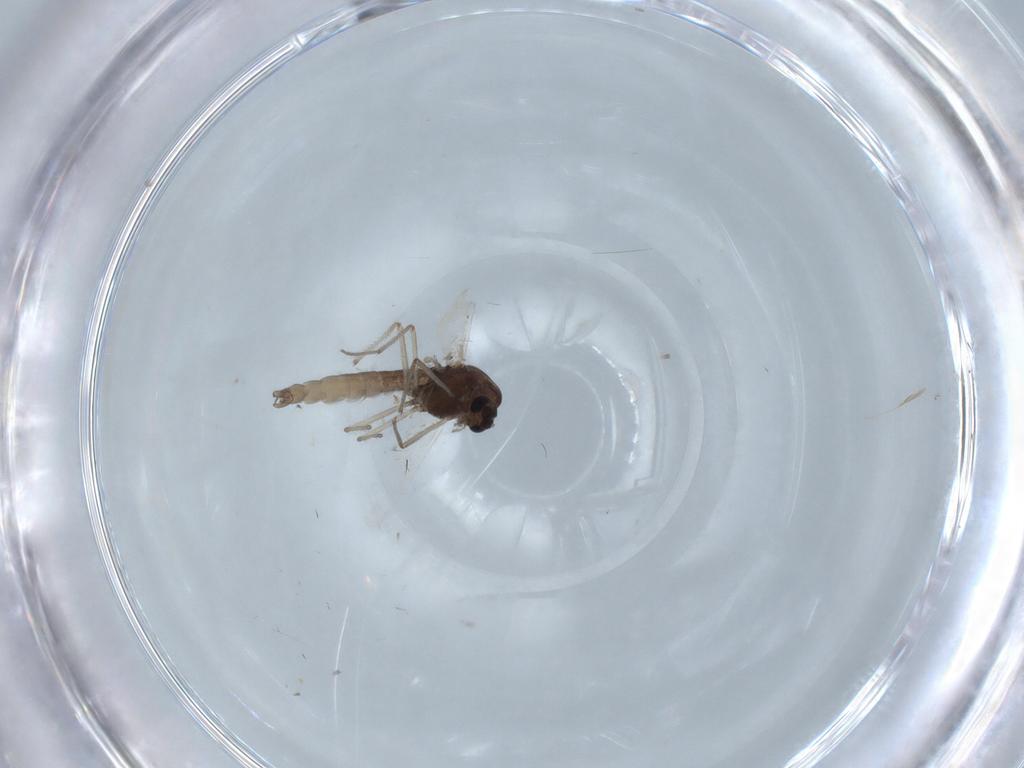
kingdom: Animalia
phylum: Arthropoda
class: Insecta
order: Diptera
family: Chironomidae
